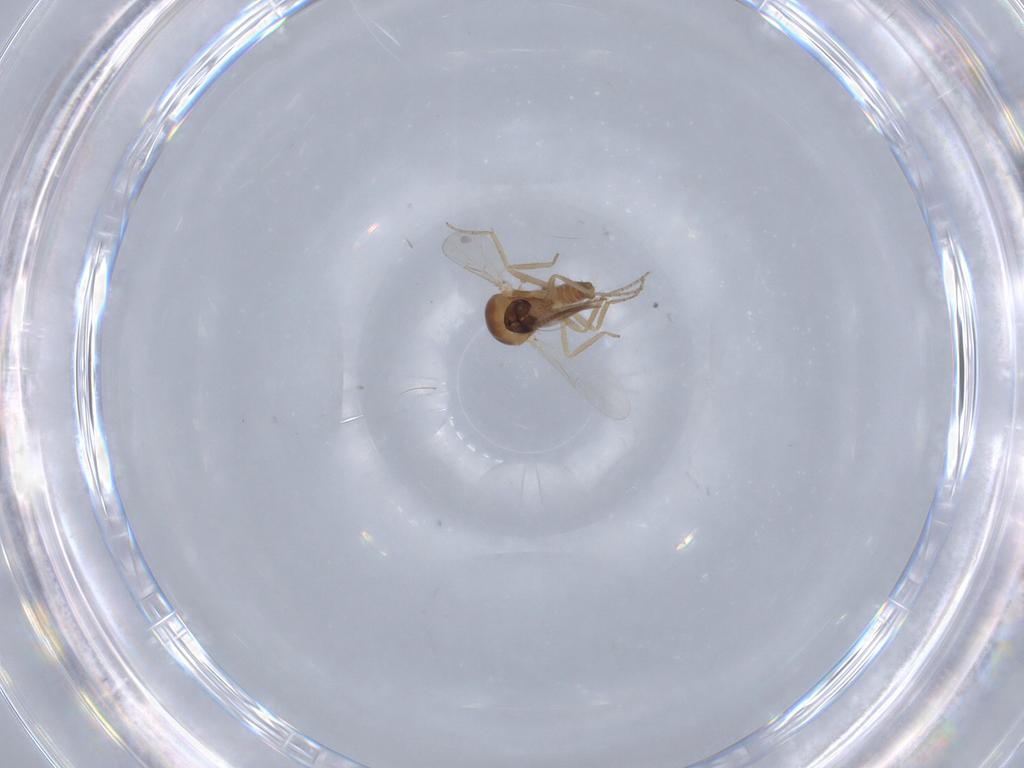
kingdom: Animalia
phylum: Arthropoda
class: Insecta
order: Diptera
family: Ceratopogonidae
